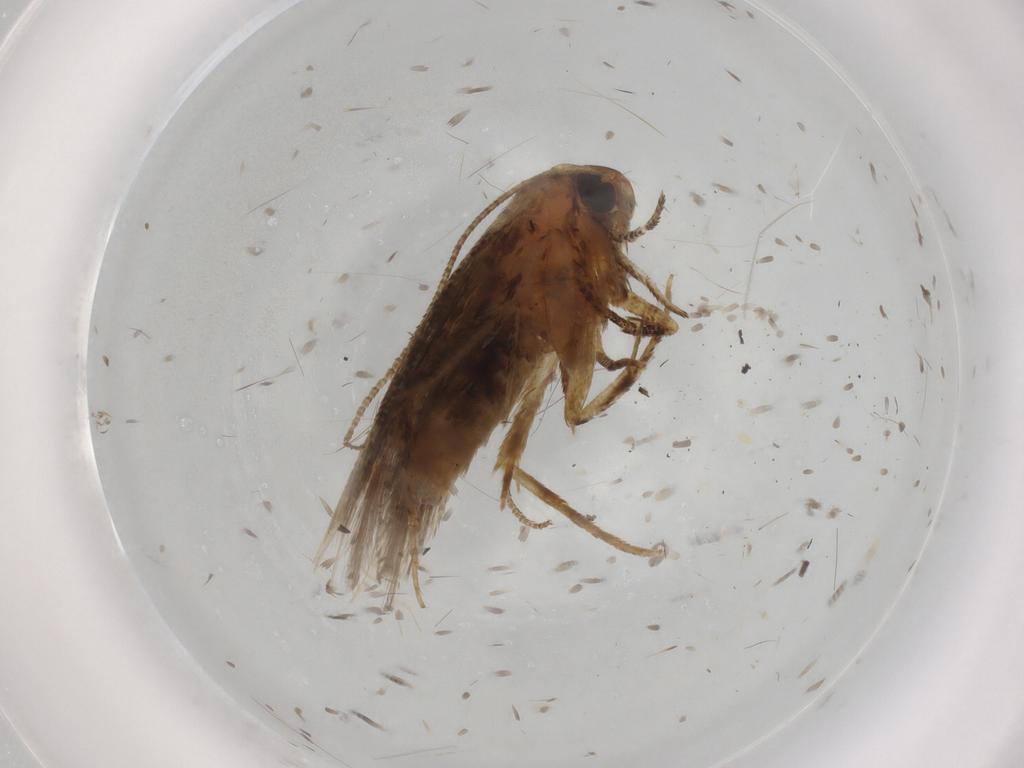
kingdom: Animalia
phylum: Arthropoda
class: Insecta
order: Lepidoptera
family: Cosmopterigidae
